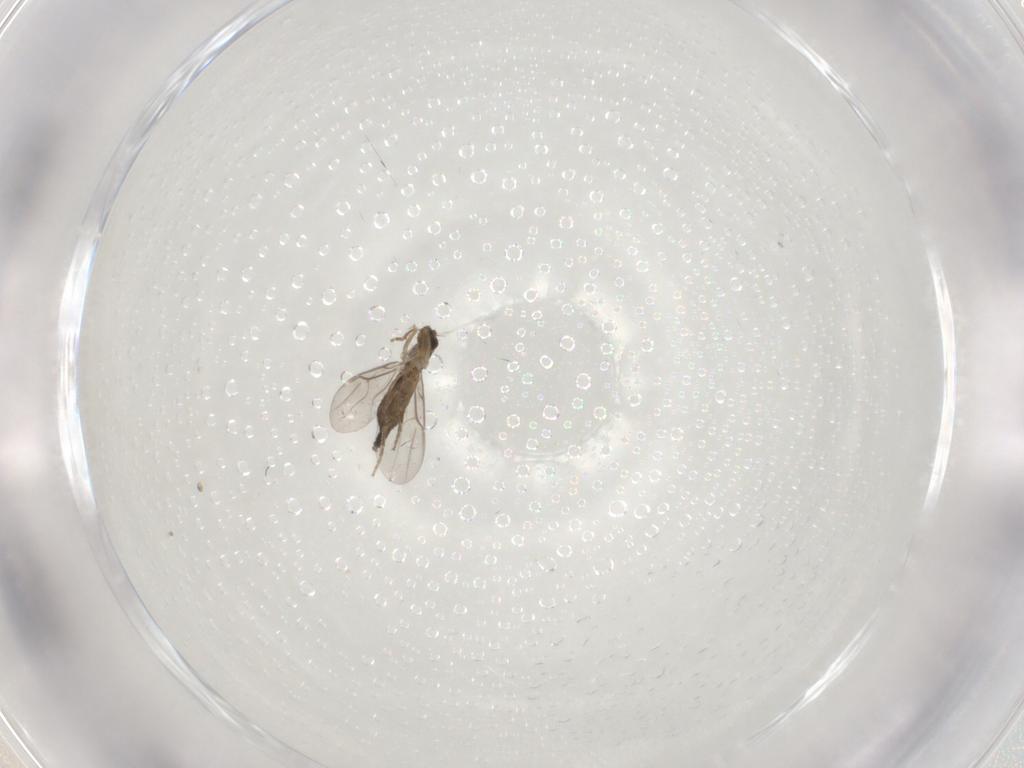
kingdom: Animalia
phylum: Arthropoda
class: Insecta
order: Diptera
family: Phoridae
